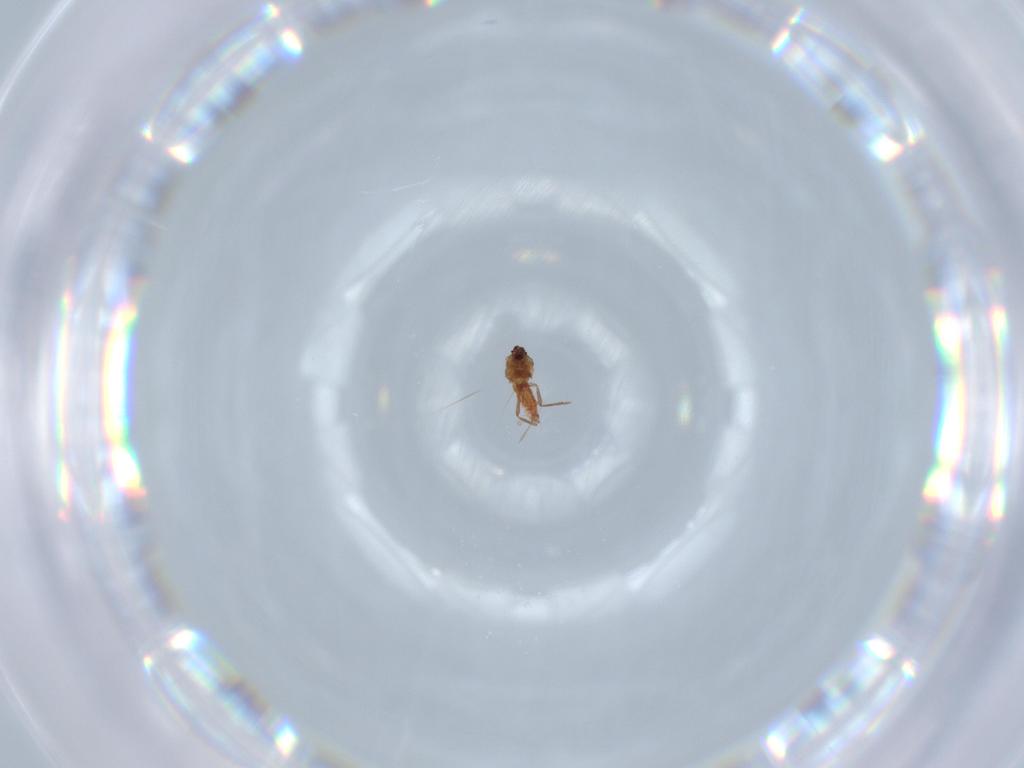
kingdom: Animalia
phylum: Arthropoda
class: Insecta
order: Diptera
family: Sciaridae
